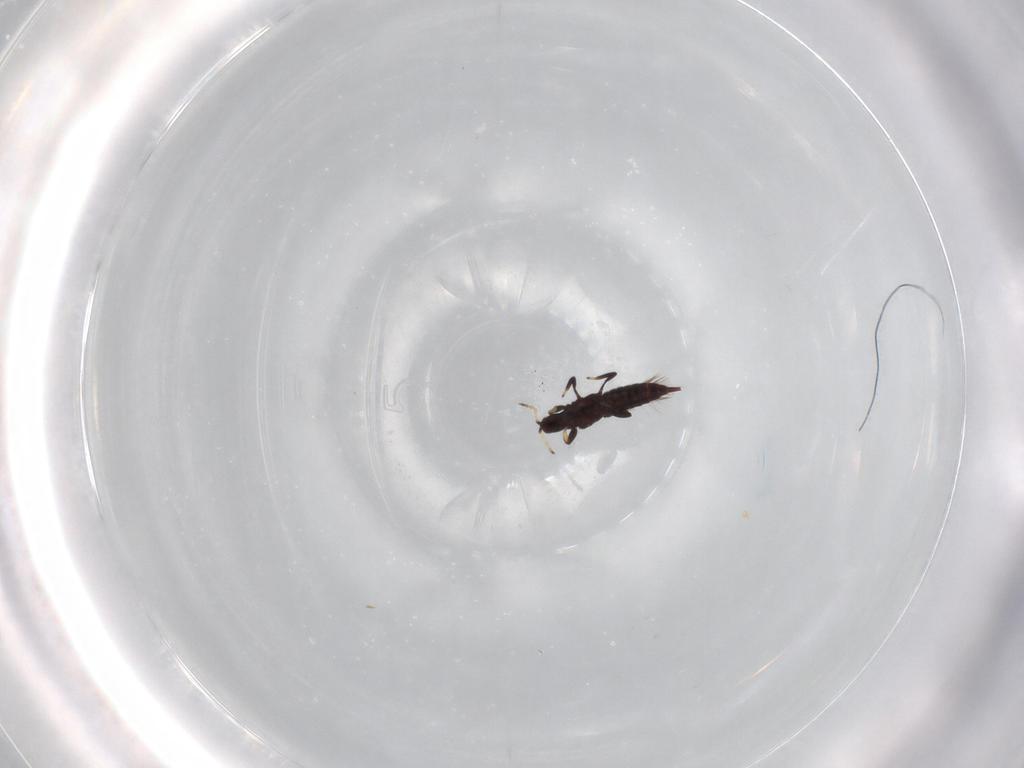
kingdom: Animalia
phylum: Arthropoda
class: Insecta
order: Thysanoptera
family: Phlaeothripidae
